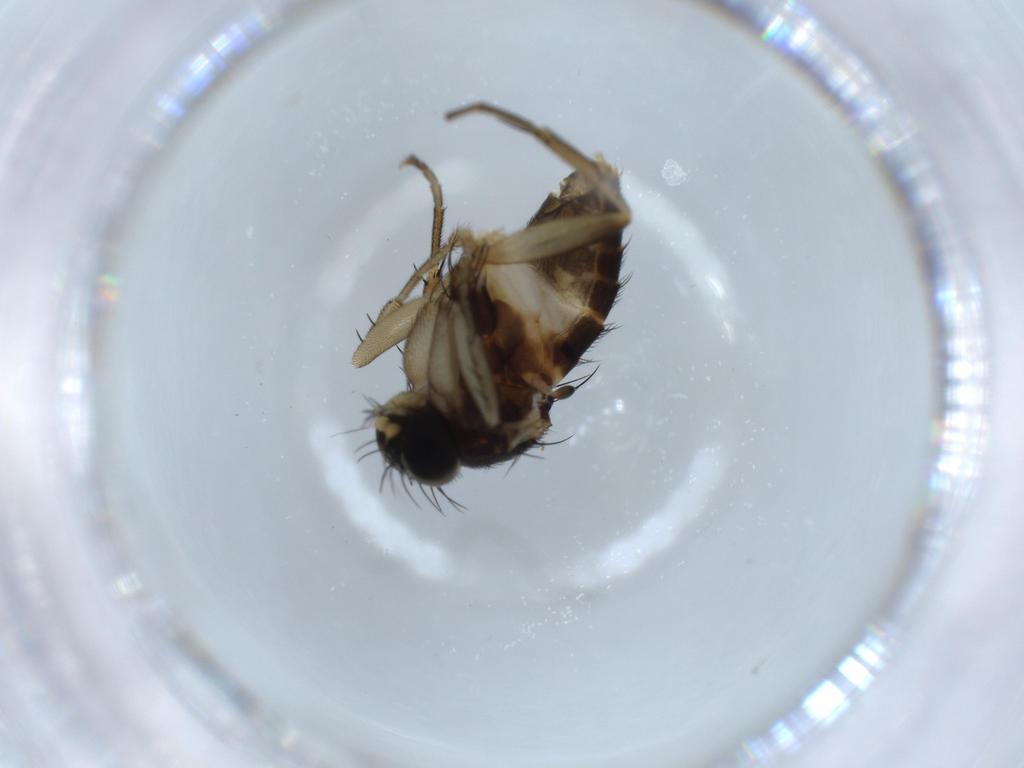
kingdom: Animalia
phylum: Arthropoda
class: Insecta
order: Diptera
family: Phoridae
